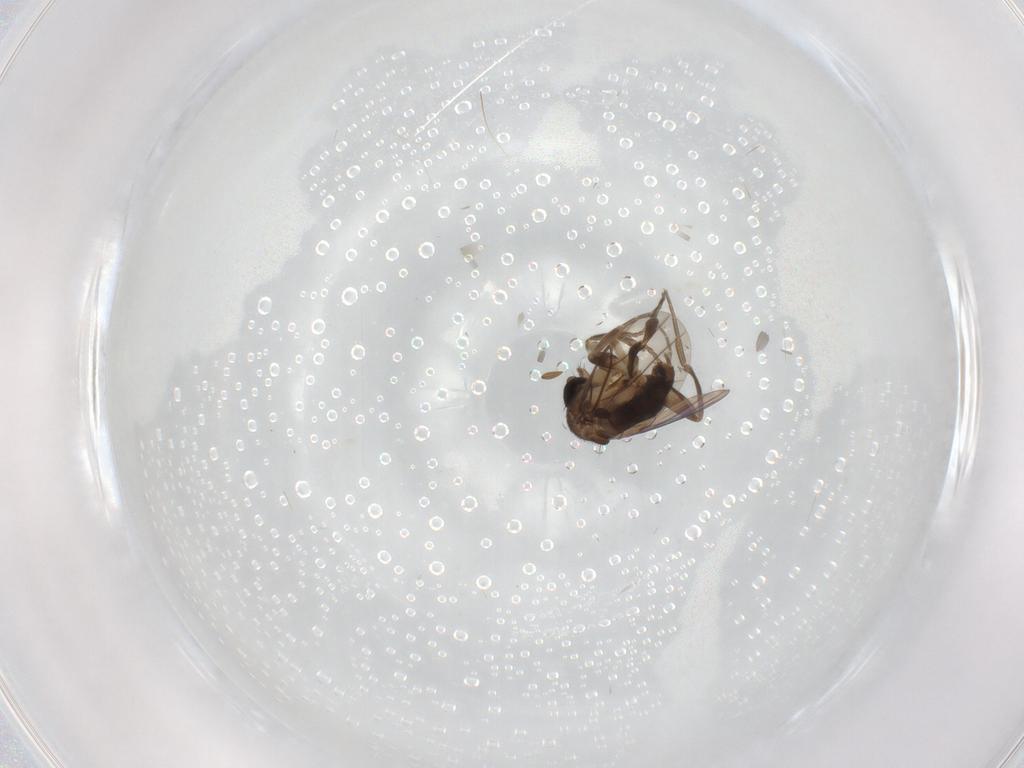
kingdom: Animalia
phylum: Arthropoda
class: Insecta
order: Diptera
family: Phoridae
